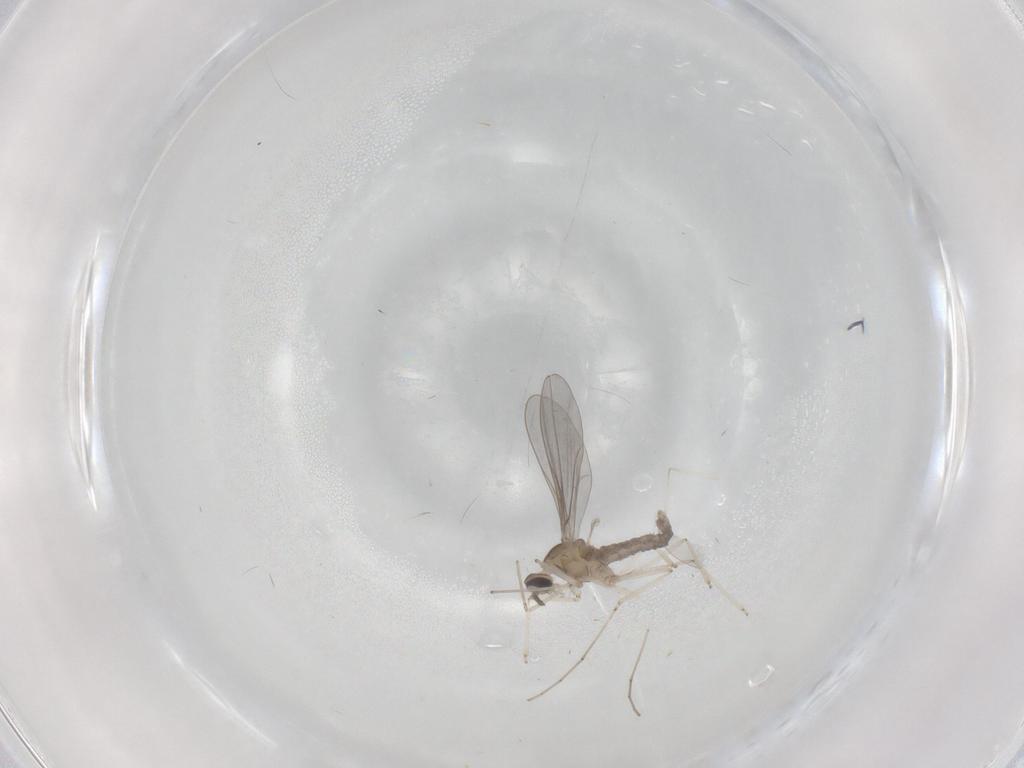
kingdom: Animalia
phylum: Arthropoda
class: Insecta
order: Diptera
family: Cecidomyiidae
